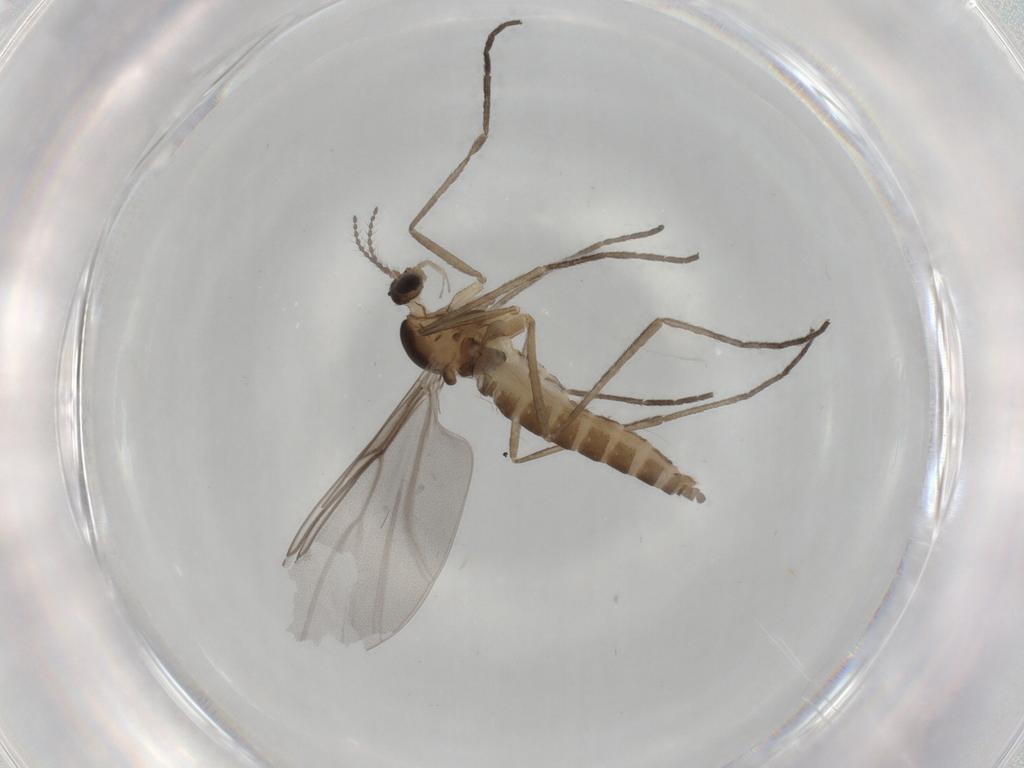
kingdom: Animalia
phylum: Arthropoda
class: Insecta
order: Diptera
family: Cecidomyiidae
